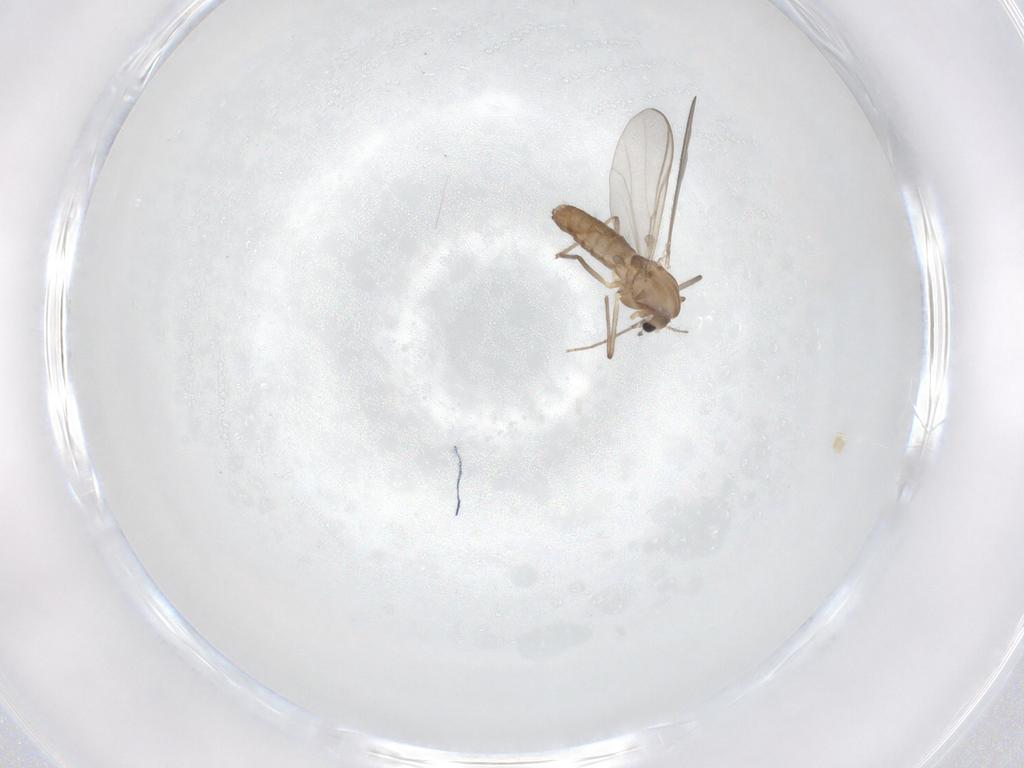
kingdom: Animalia
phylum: Arthropoda
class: Insecta
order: Diptera
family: Chironomidae
